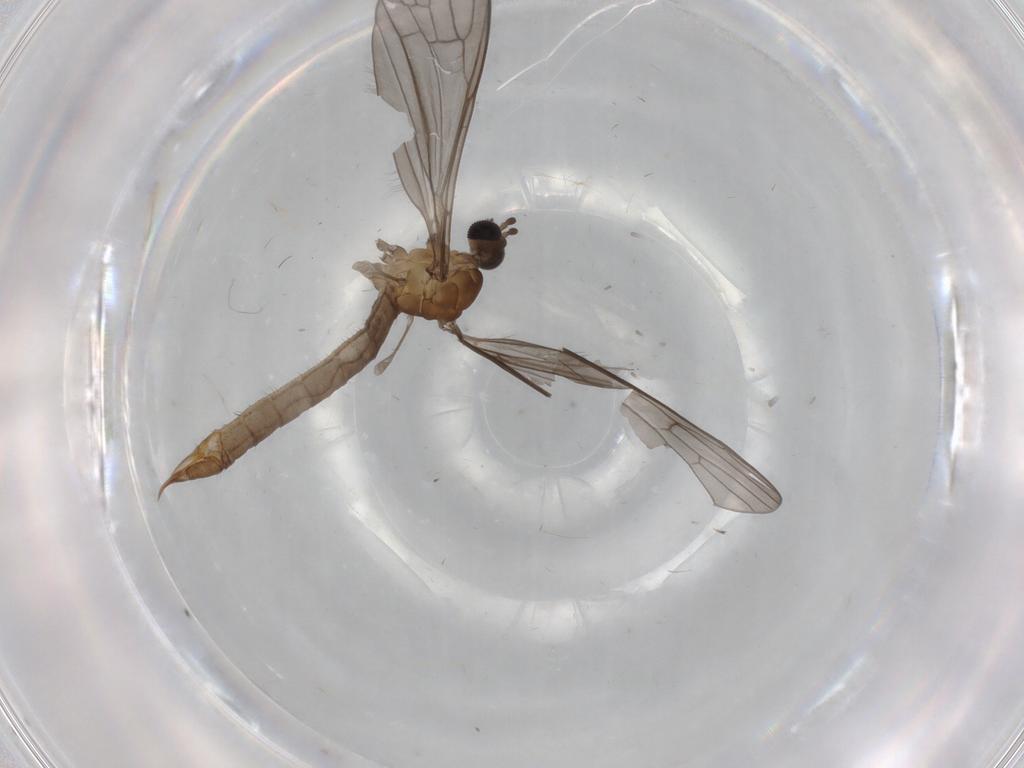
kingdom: Animalia
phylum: Arthropoda
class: Insecta
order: Diptera
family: Limoniidae
